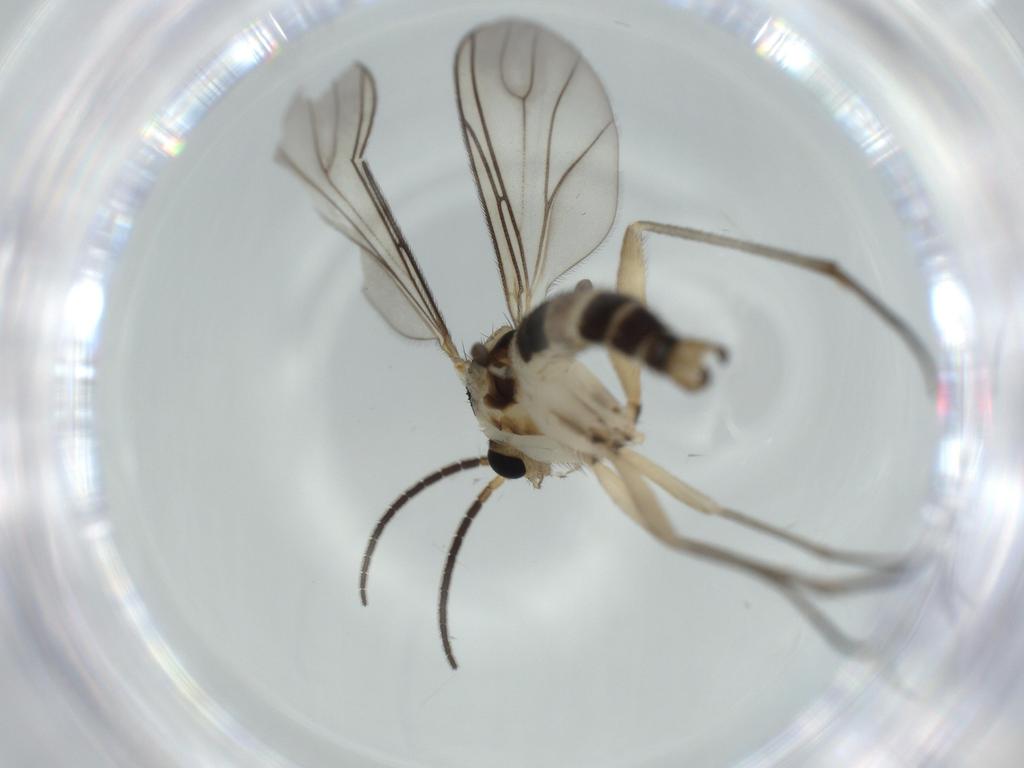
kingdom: Animalia
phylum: Arthropoda
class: Insecta
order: Diptera
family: Sciaridae
